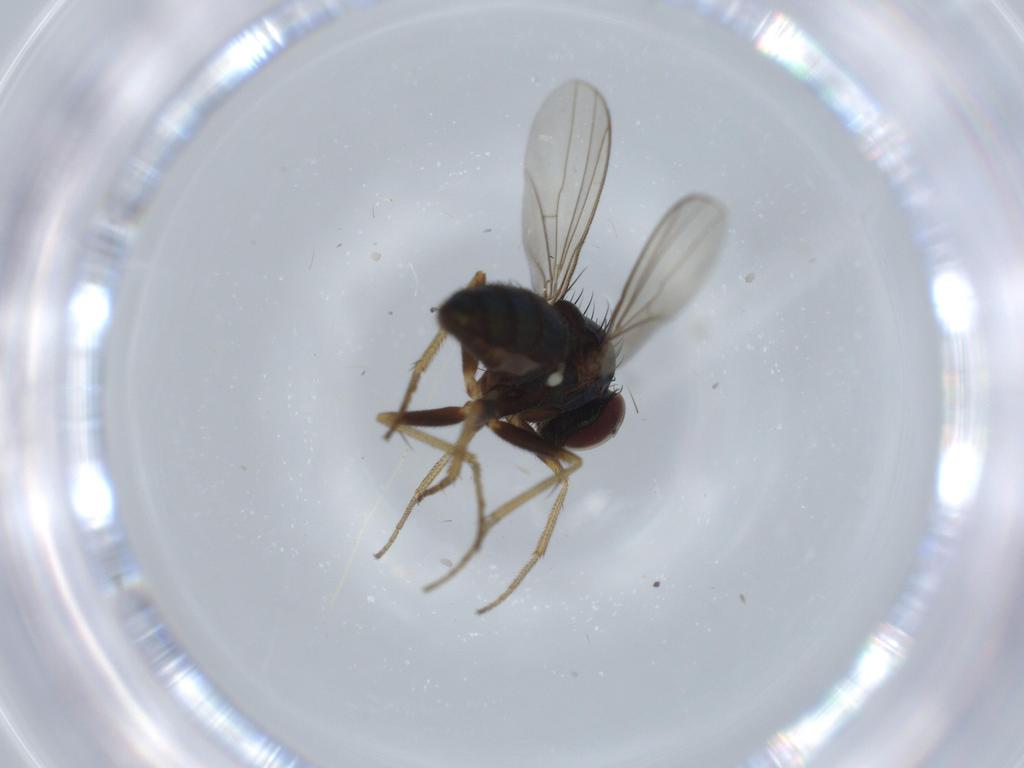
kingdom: Animalia
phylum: Arthropoda
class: Insecta
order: Diptera
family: Cecidomyiidae
